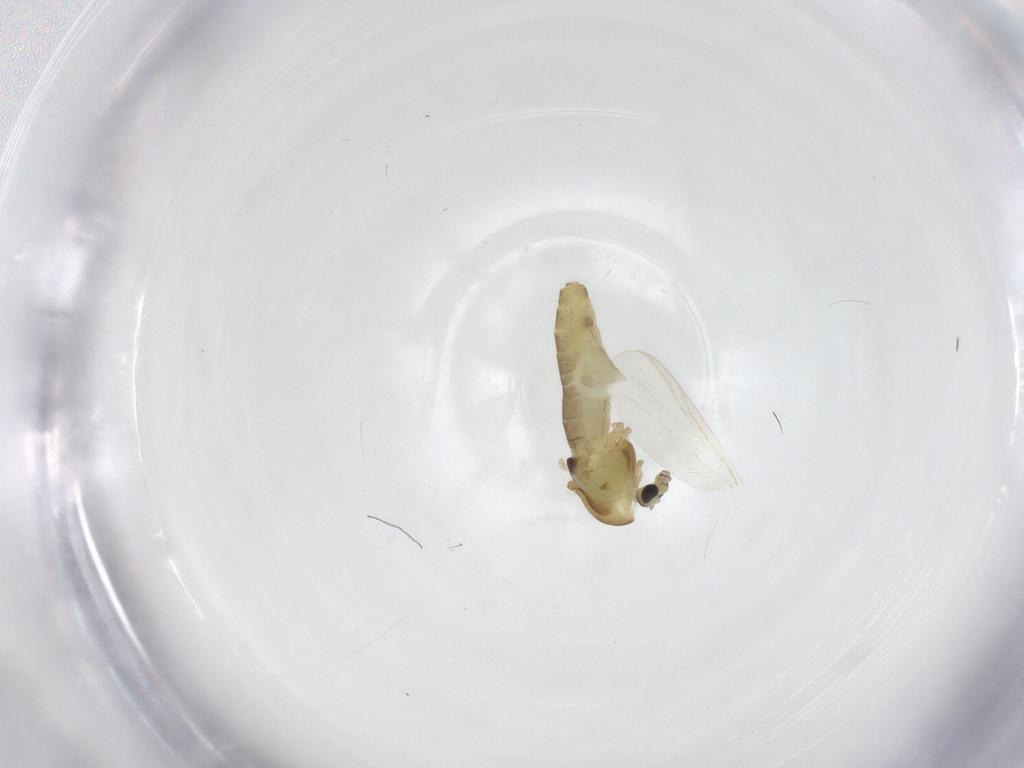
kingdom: Animalia
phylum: Arthropoda
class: Insecta
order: Diptera
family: Chironomidae
